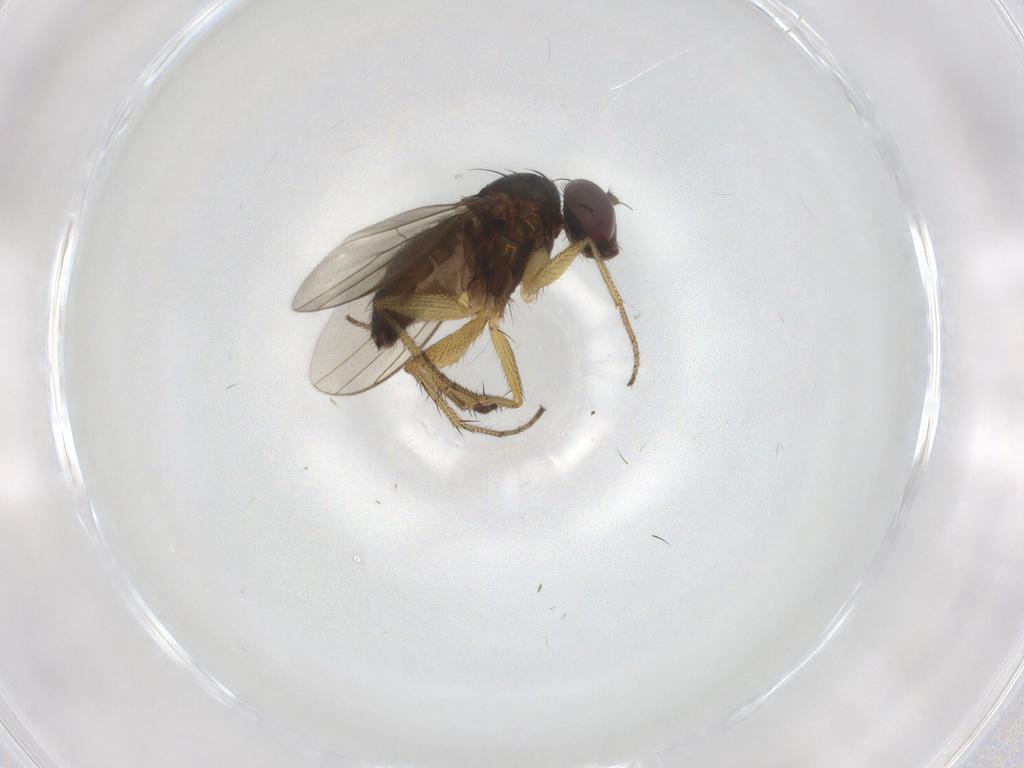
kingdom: Animalia
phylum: Arthropoda
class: Insecta
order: Diptera
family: Dolichopodidae
